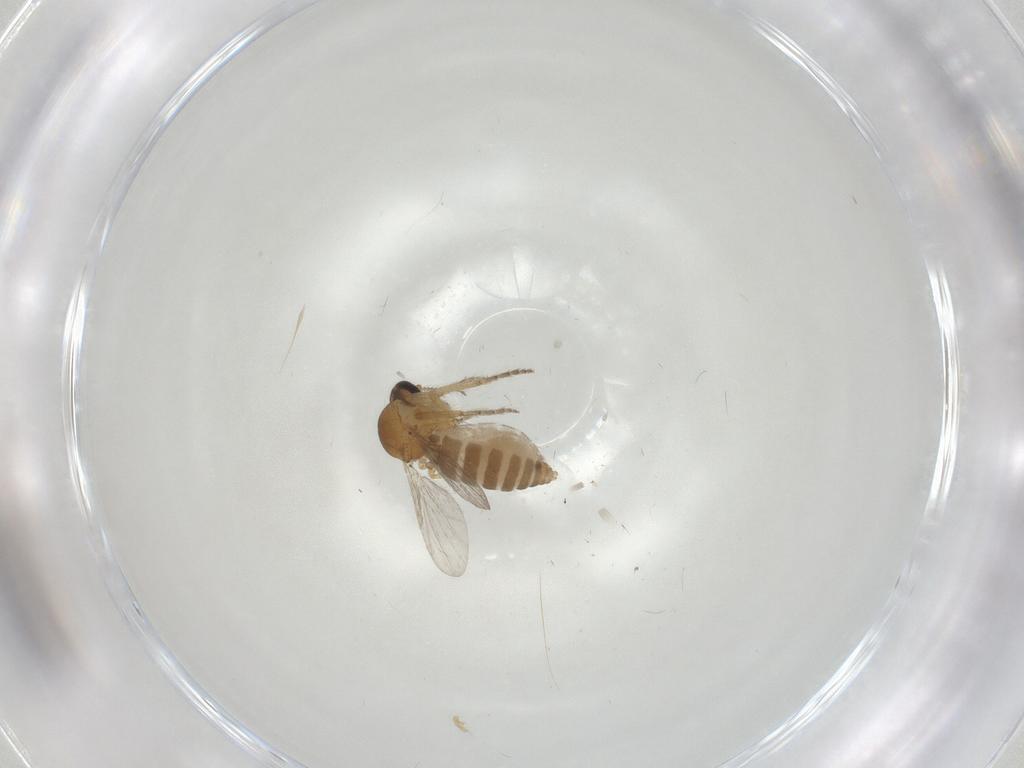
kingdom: Animalia
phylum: Arthropoda
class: Insecta
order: Diptera
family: Ceratopogonidae
